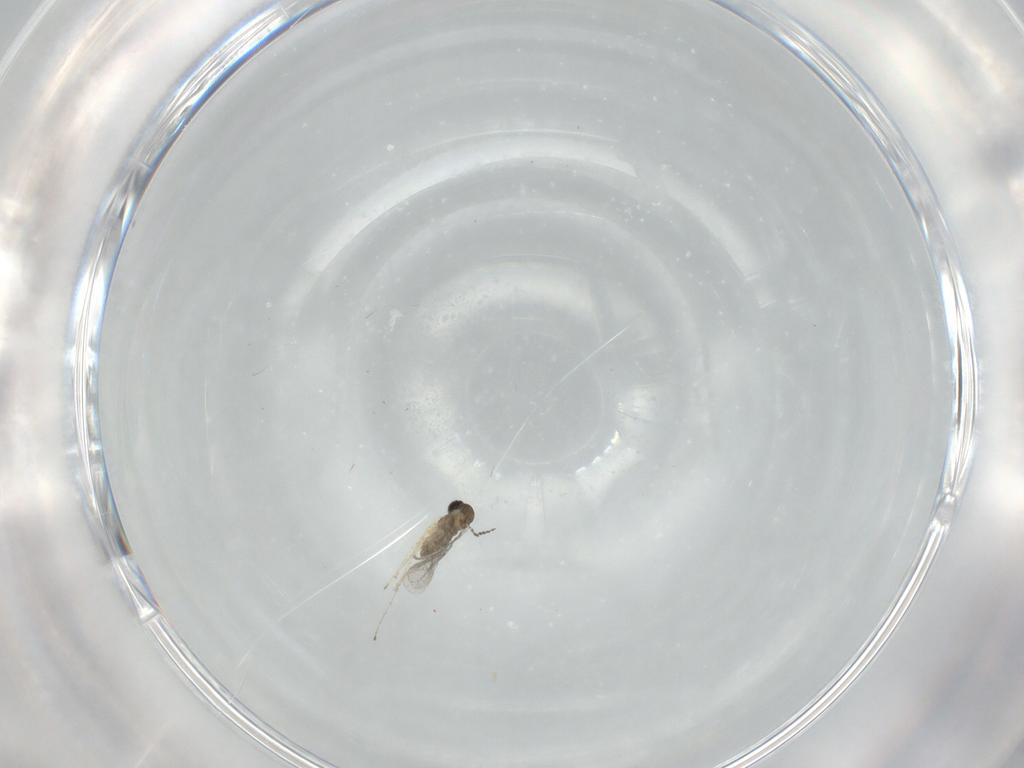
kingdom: Animalia
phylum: Arthropoda
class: Insecta
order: Diptera
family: Cecidomyiidae
